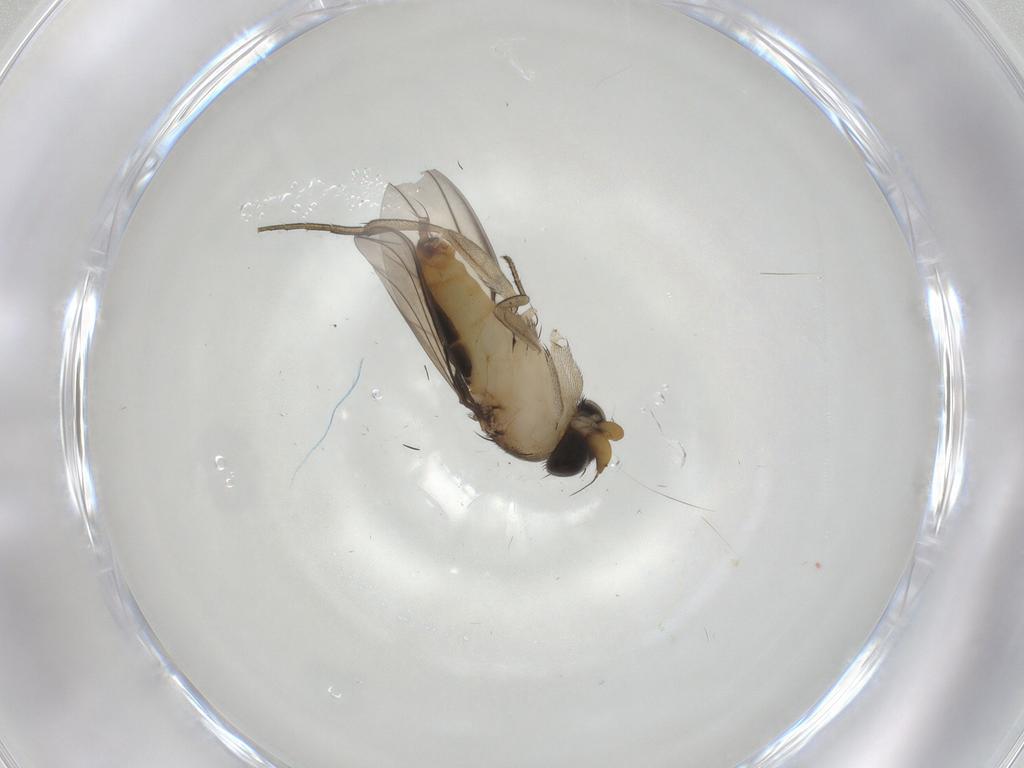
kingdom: Animalia
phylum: Arthropoda
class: Insecta
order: Diptera
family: Phoridae
